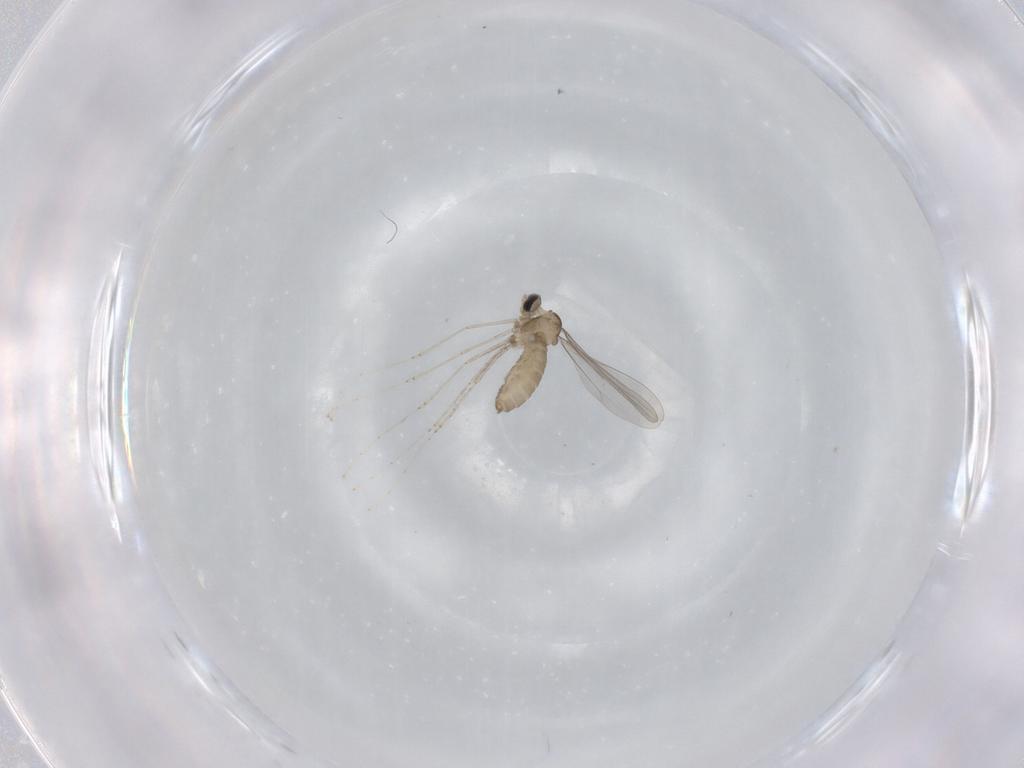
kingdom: Animalia
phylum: Arthropoda
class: Insecta
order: Diptera
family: Cecidomyiidae
